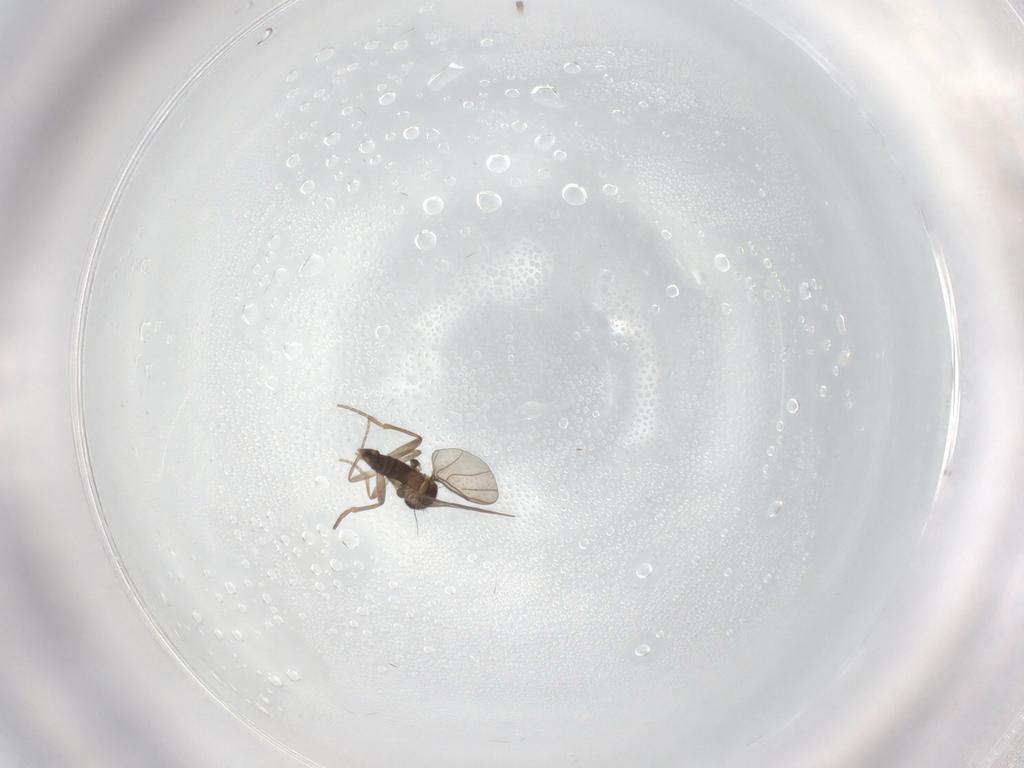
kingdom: Animalia
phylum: Arthropoda
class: Insecta
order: Diptera
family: Phoridae
